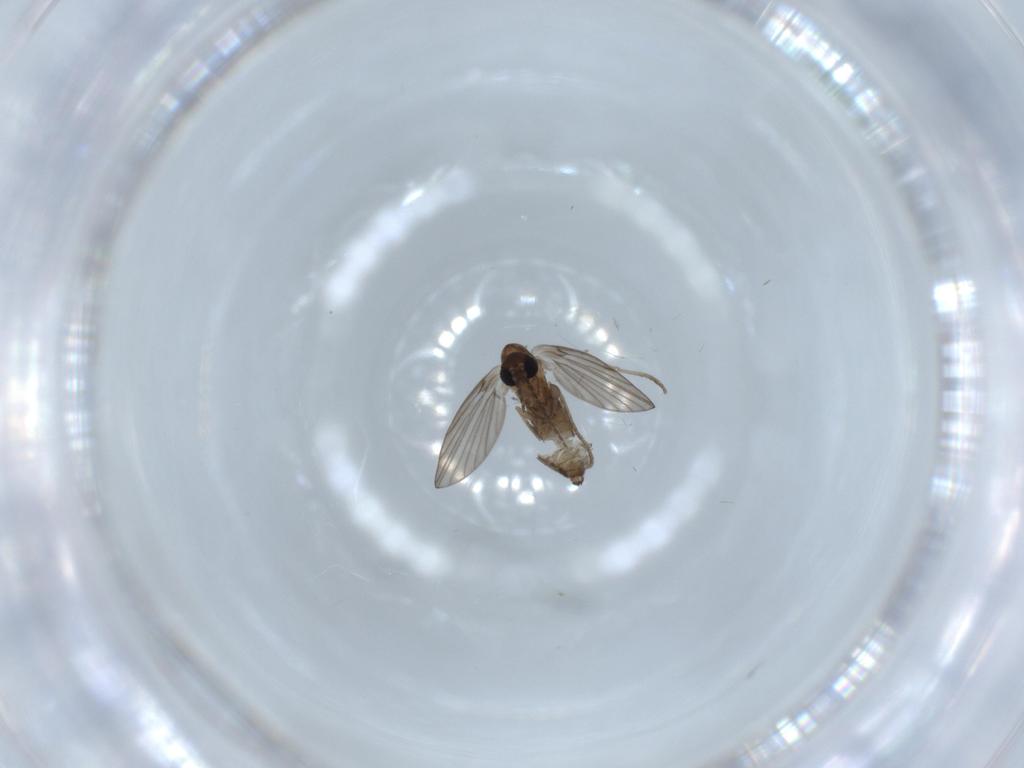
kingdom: Animalia
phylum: Arthropoda
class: Insecta
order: Diptera
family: Psychodidae
